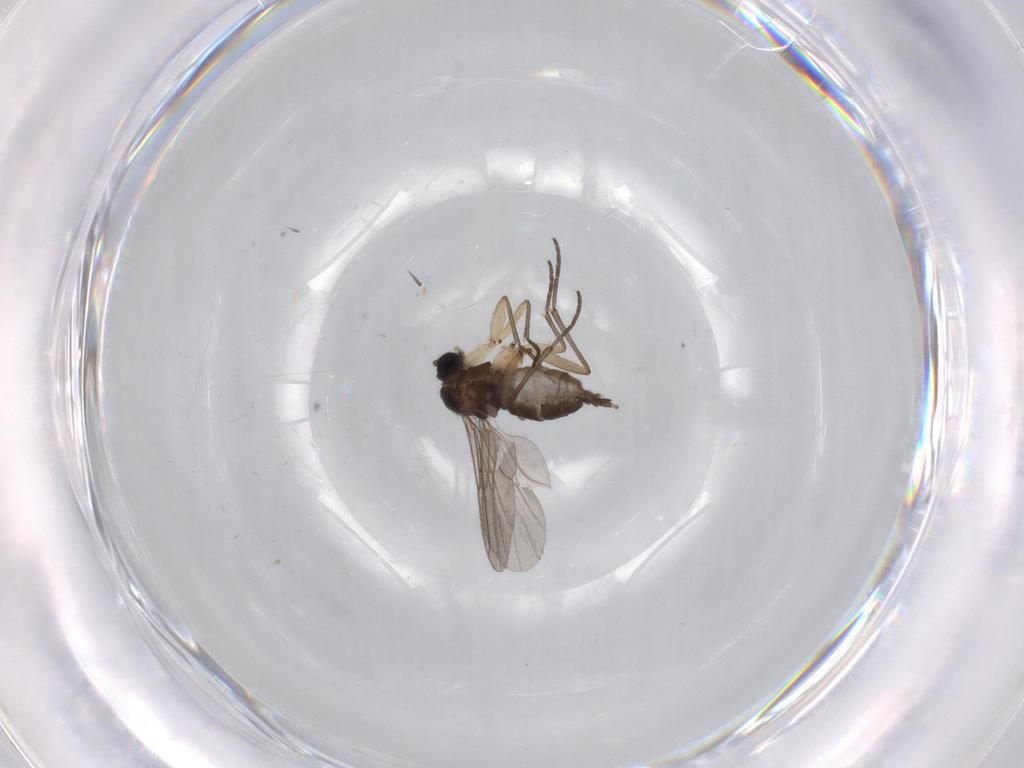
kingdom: Animalia
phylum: Arthropoda
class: Insecta
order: Diptera
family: Sciaridae
